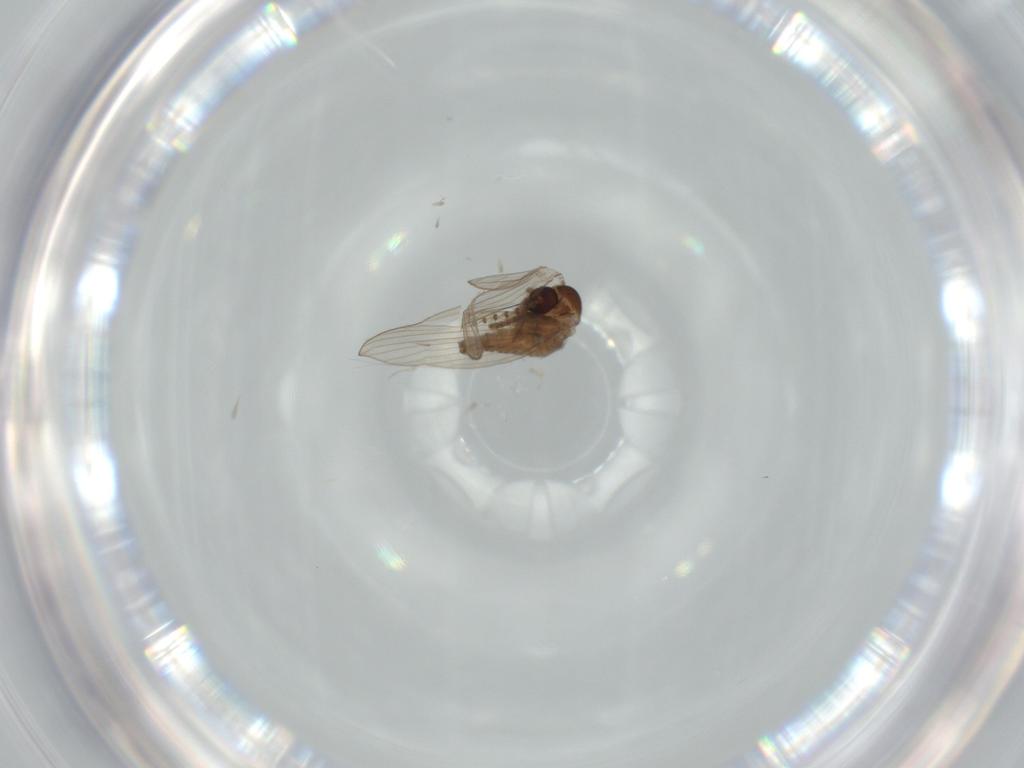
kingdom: Animalia
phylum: Arthropoda
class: Insecta
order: Diptera
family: Psychodidae
